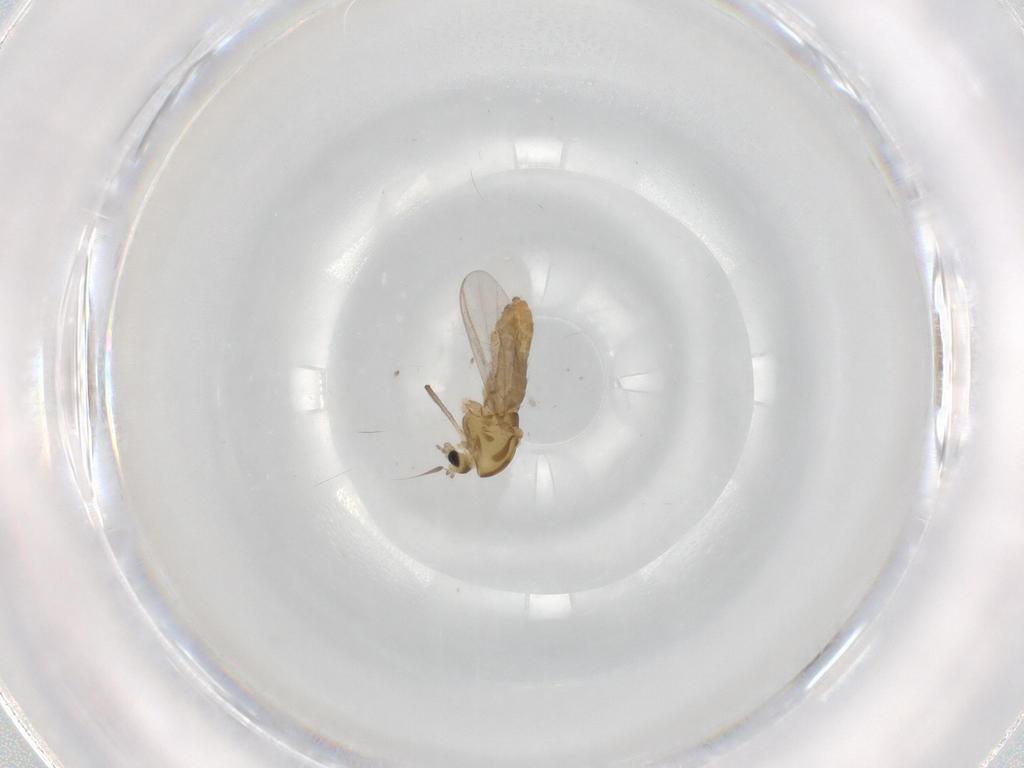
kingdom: Animalia
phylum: Arthropoda
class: Insecta
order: Diptera
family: Chironomidae
